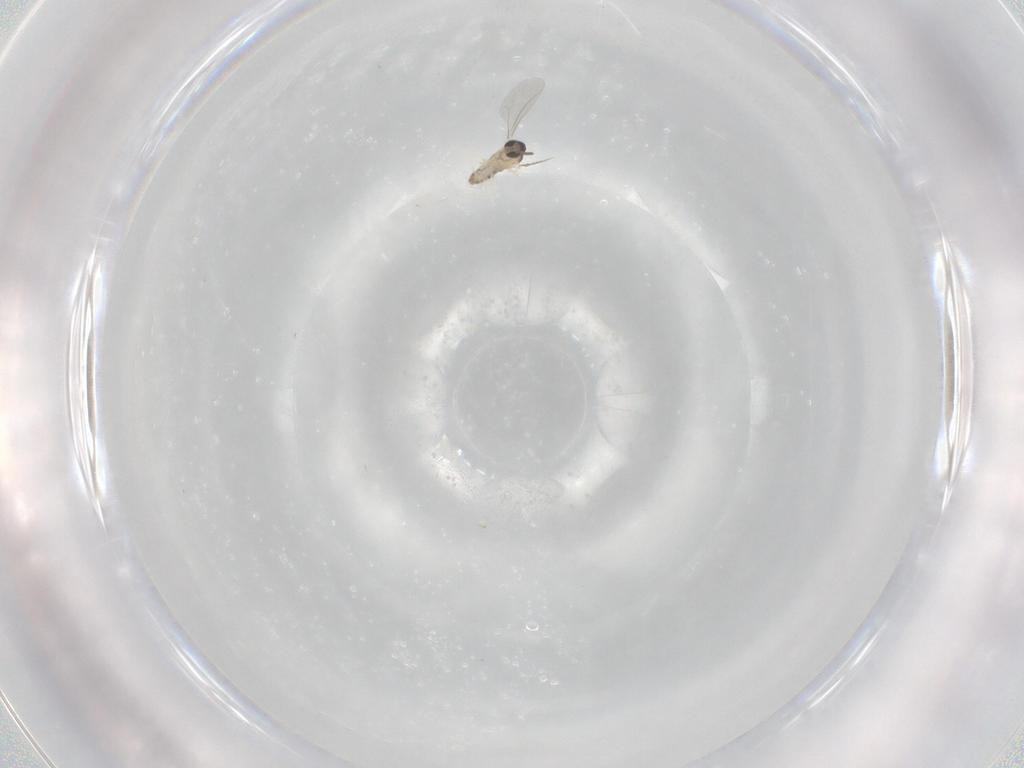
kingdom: Animalia
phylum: Arthropoda
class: Insecta
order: Diptera
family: Cecidomyiidae
